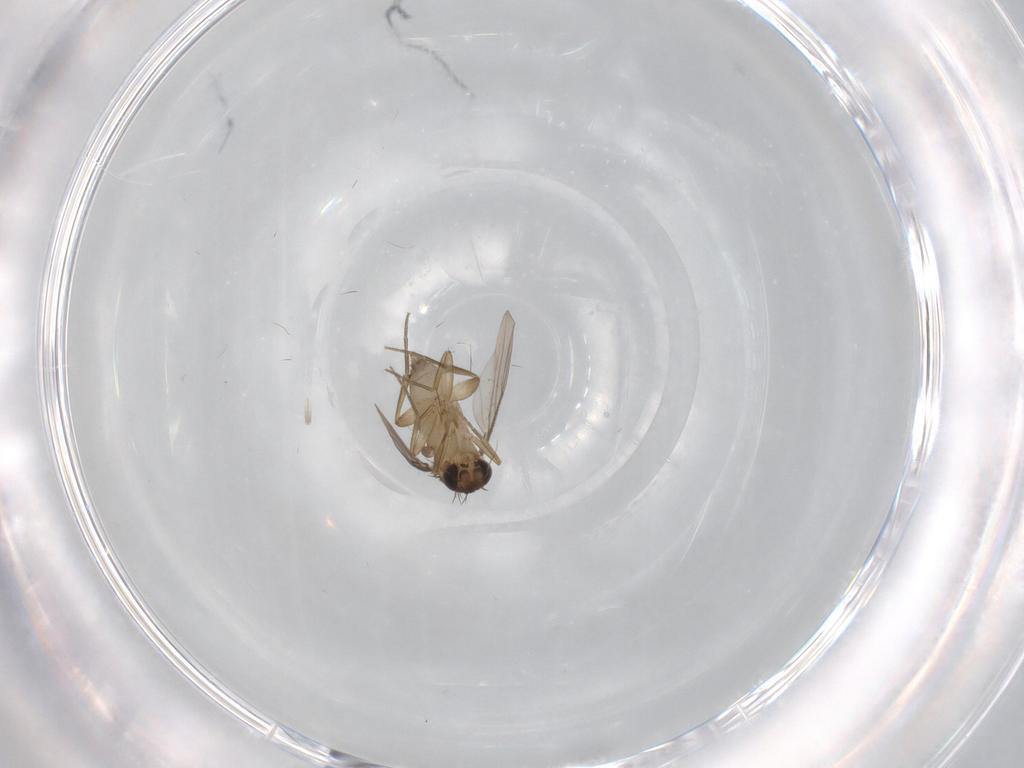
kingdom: Animalia
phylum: Arthropoda
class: Insecta
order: Diptera
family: Phoridae
